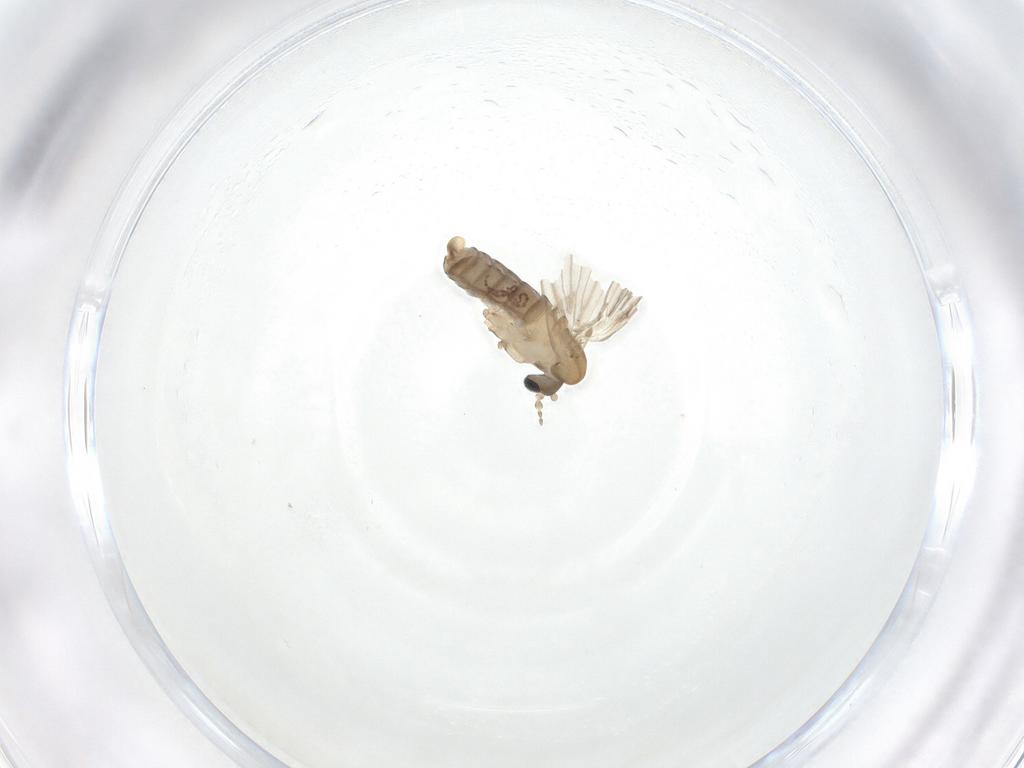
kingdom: Animalia
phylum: Arthropoda
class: Insecta
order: Diptera
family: Psychodidae
